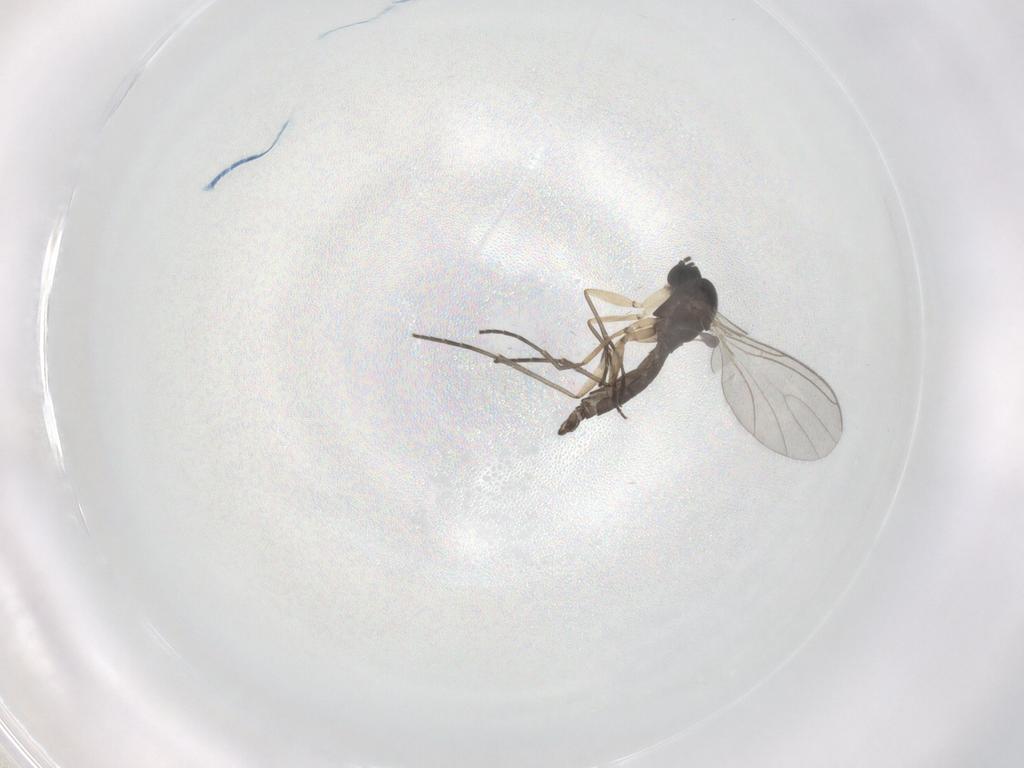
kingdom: Animalia
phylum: Arthropoda
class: Insecta
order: Diptera
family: Sciaridae
